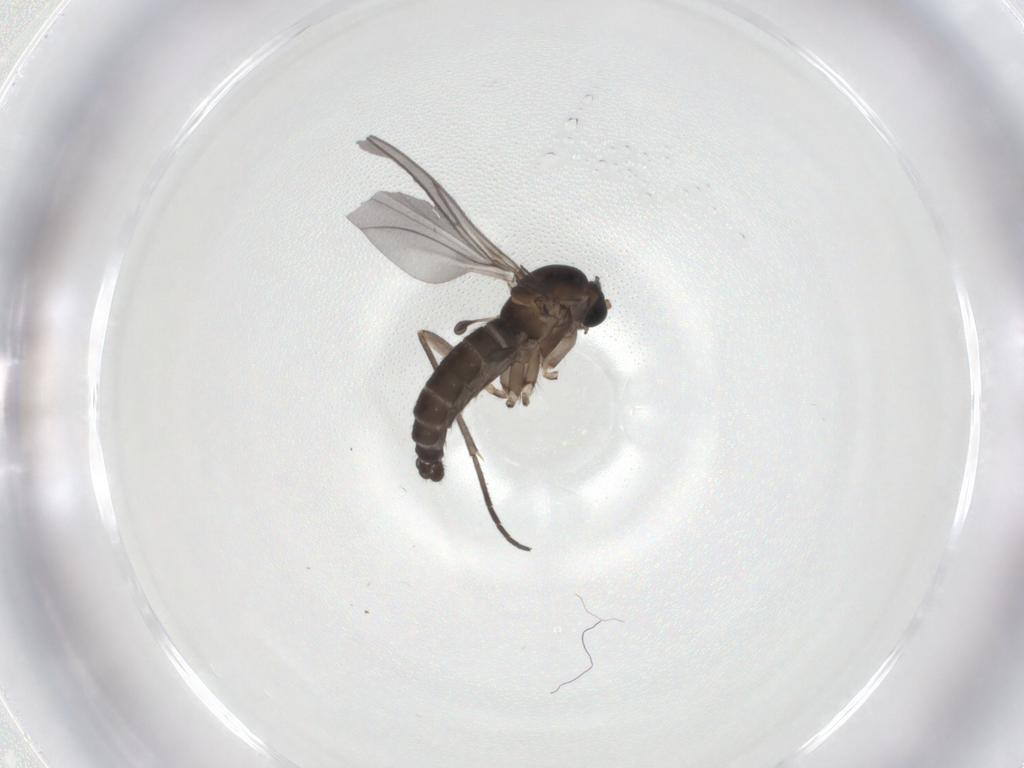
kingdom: Animalia
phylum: Arthropoda
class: Insecta
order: Diptera
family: Sciaridae
